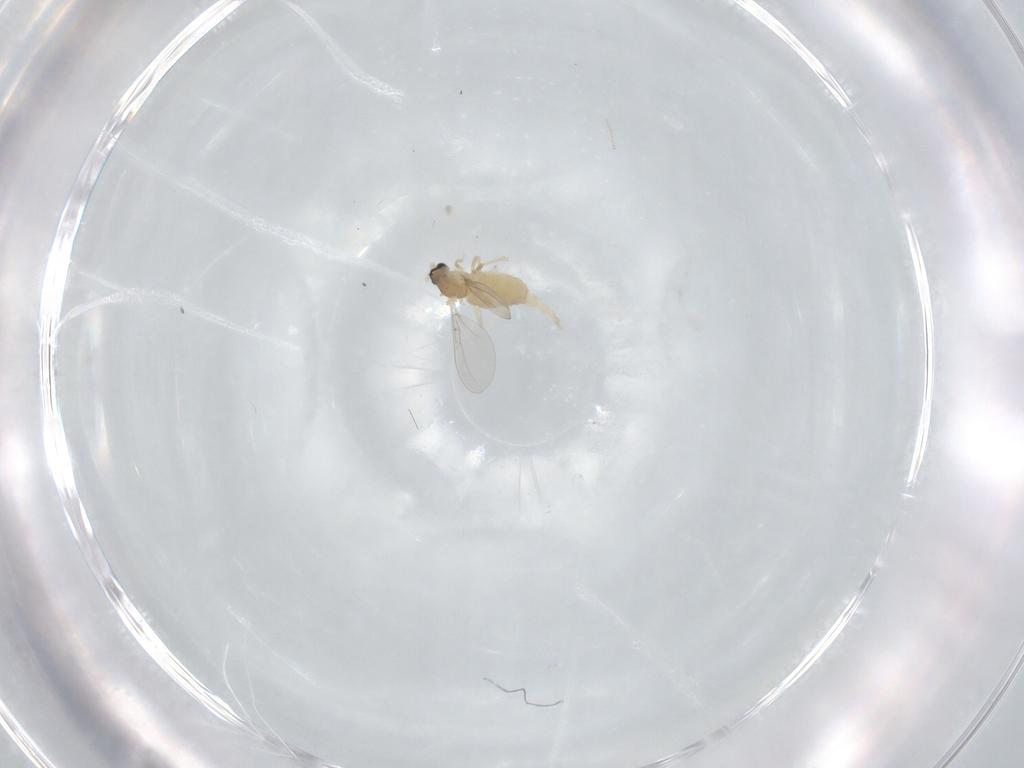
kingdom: Animalia
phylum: Arthropoda
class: Insecta
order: Diptera
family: Cecidomyiidae
